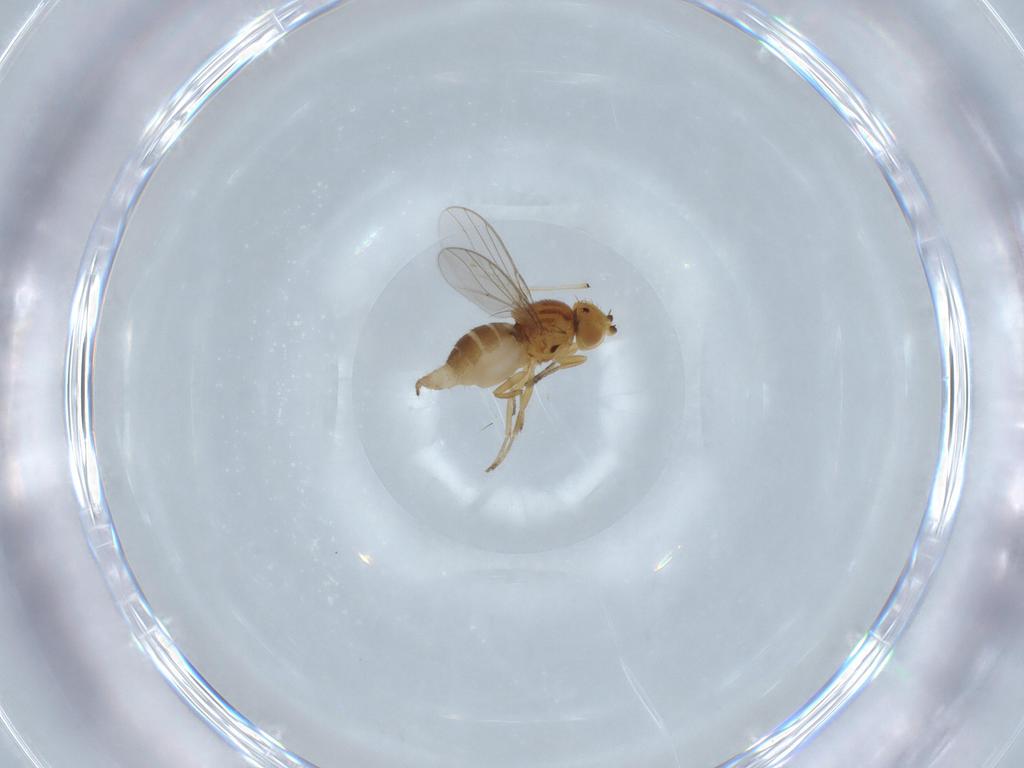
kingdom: Animalia
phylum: Arthropoda
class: Insecta
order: Diptera
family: Chloropidae
